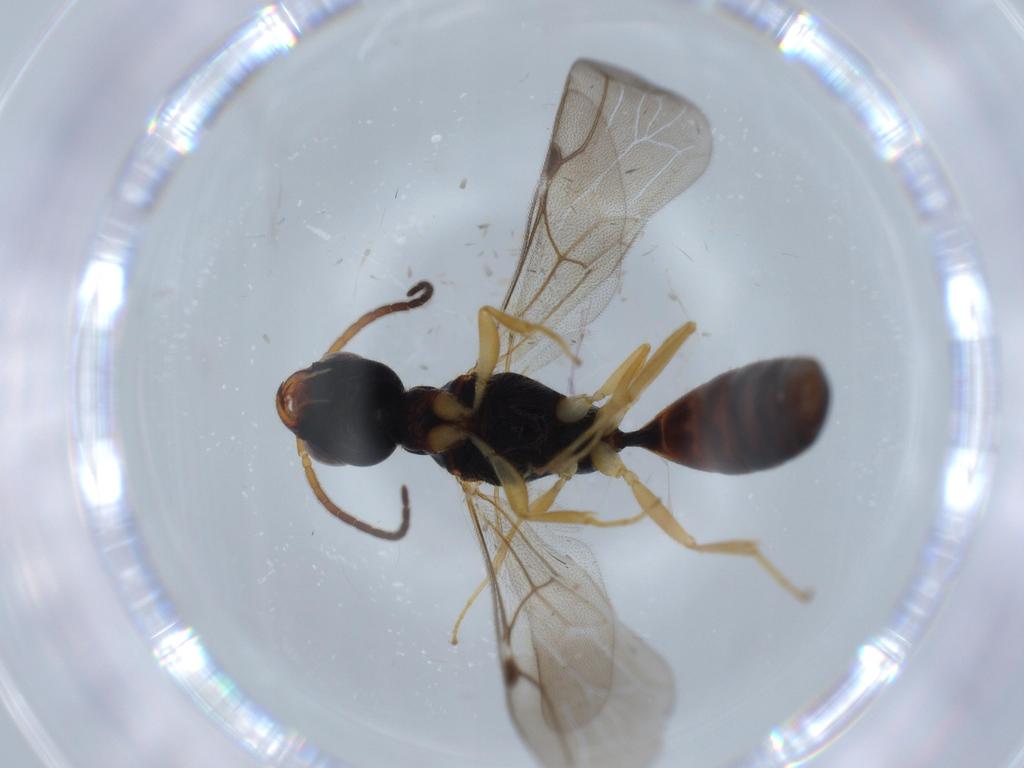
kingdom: Animalia
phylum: Arthropoda
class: Insecta
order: Hymenoptera
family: Bethylidae
